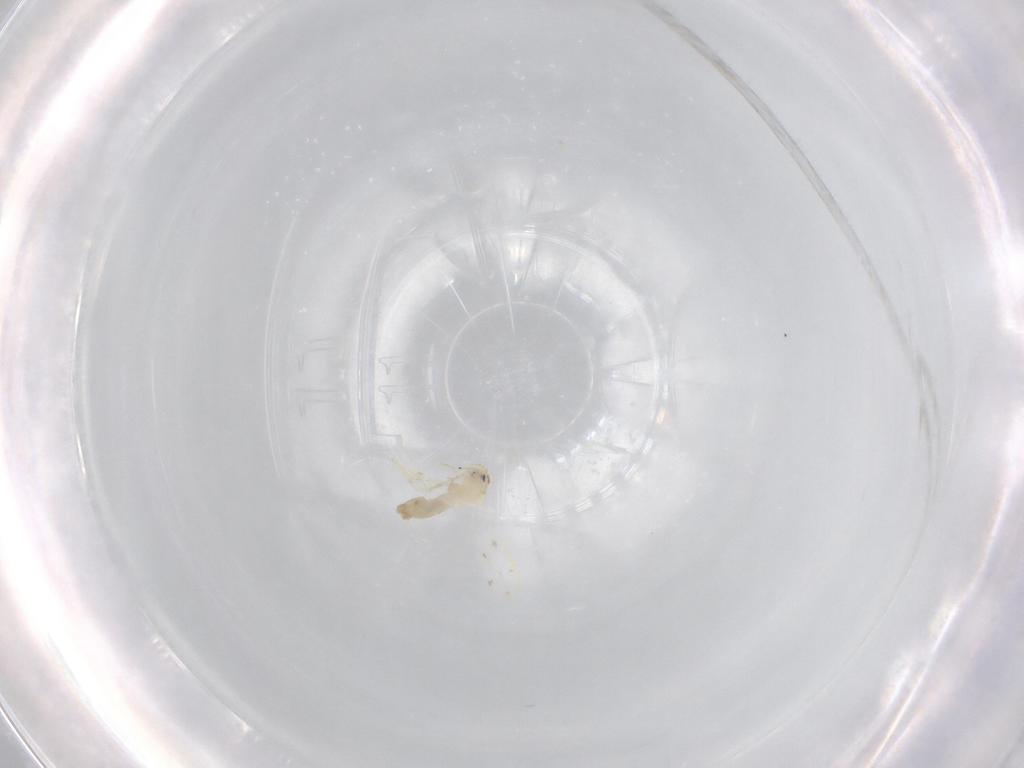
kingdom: Animalia
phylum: Arthropoda
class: Insecta
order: Hemiptera
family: Aleyrodidae
